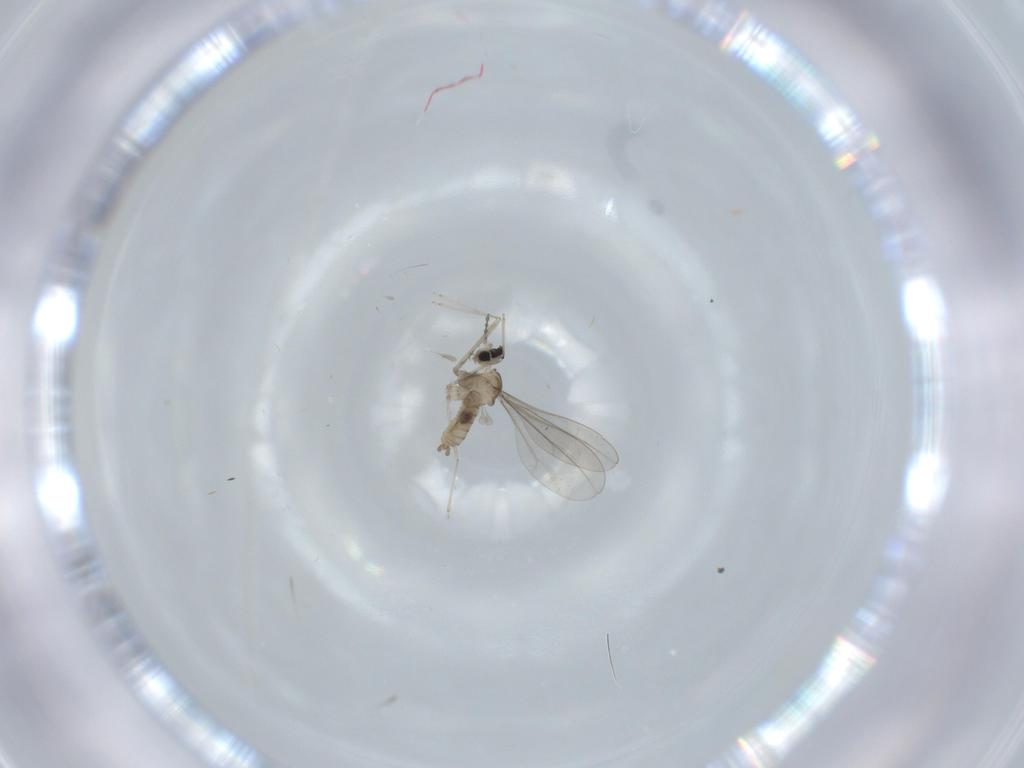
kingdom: Animalia
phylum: Arthropoda
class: Insecta
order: Diptera
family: Cecidomyiidae
